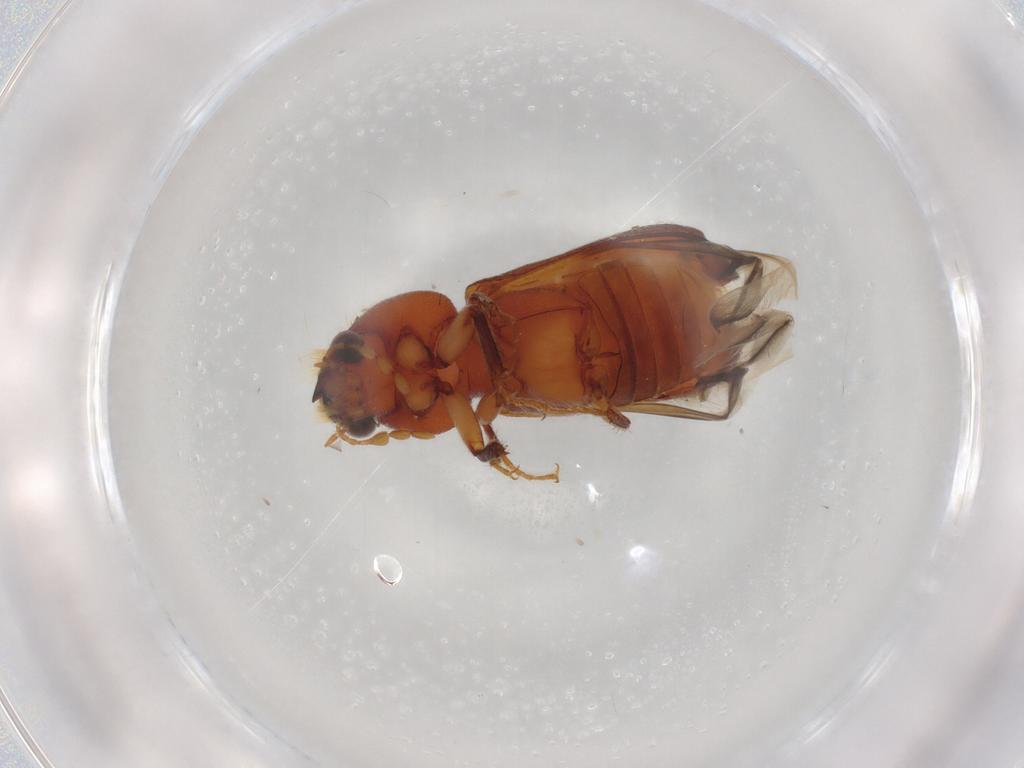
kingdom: Animalia
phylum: Arthropoda
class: Insecta
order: Coleoptera
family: Bostrichidae
